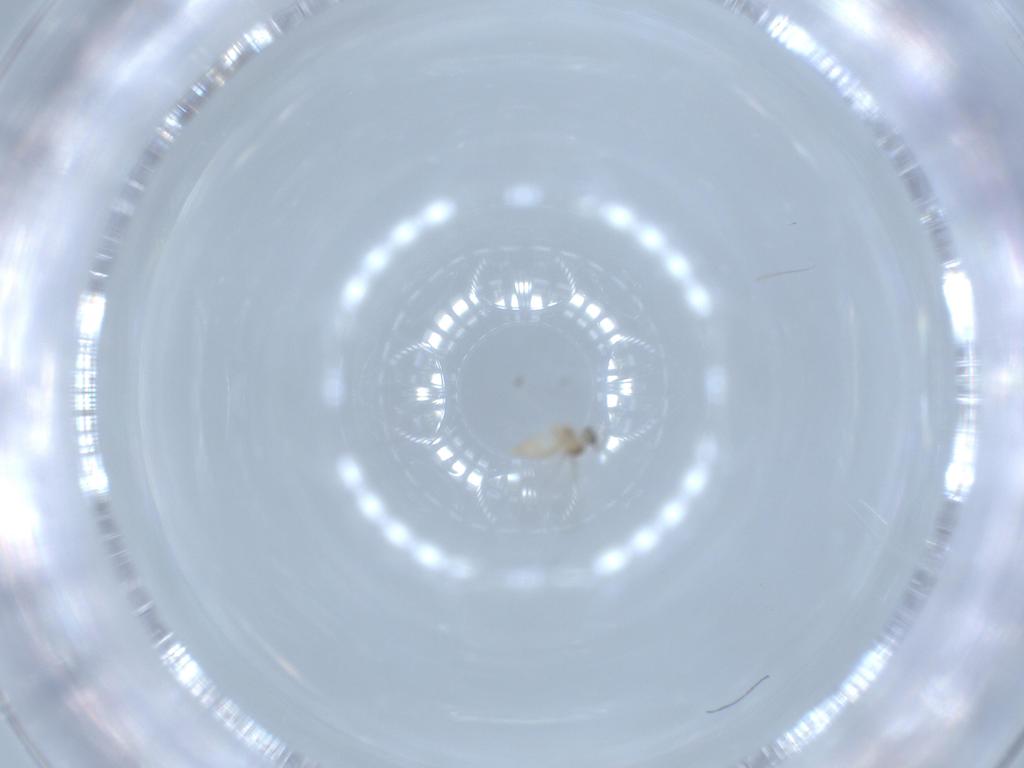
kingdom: Animalia
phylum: Arthropoda
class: Insecta
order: Diptera
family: Cecidomyiidae
